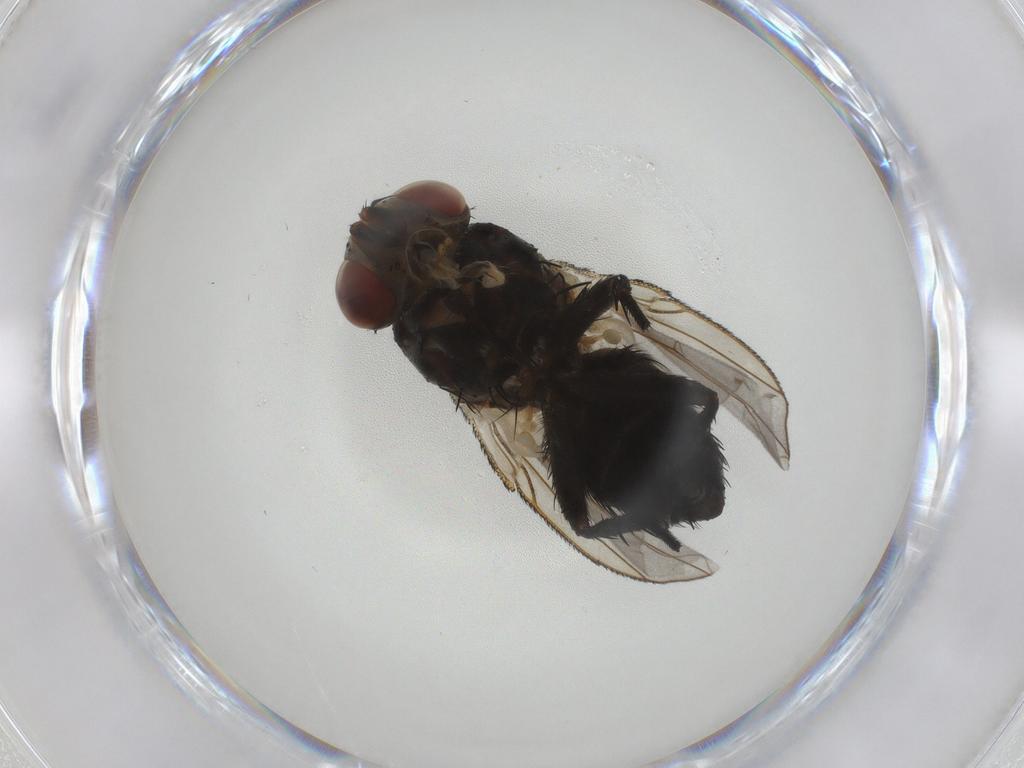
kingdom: Animalia
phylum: Arthropoda
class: Insecta
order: Diptera
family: Tachinidae
